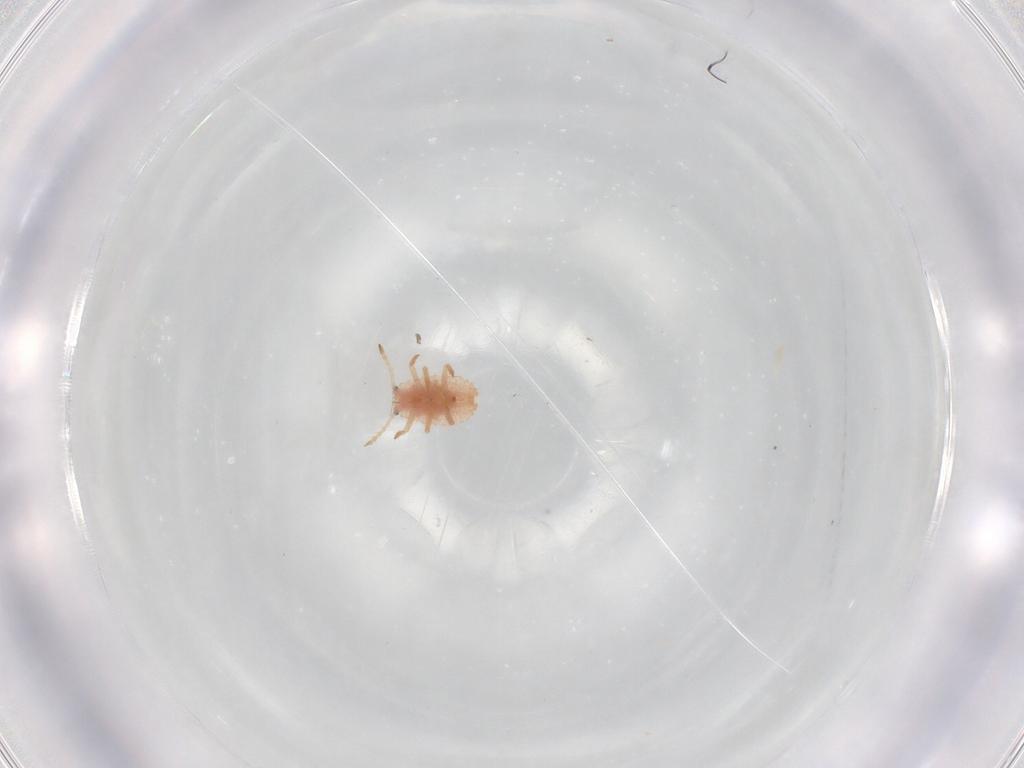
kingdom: Animalia
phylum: Arthropoda
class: Insecta
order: Hemiptera
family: Coccoidea_incertae_sedis
